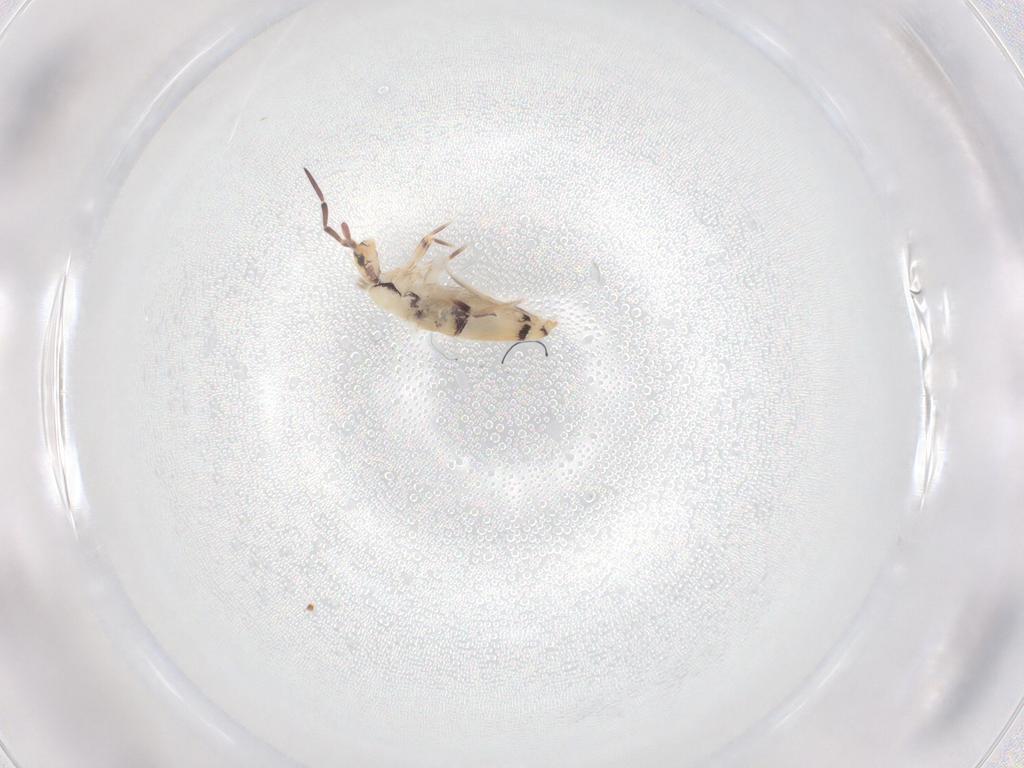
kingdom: Animalia
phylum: Arthropoda
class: Collembola
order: Entomobryomorpha
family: Entomobryidae
